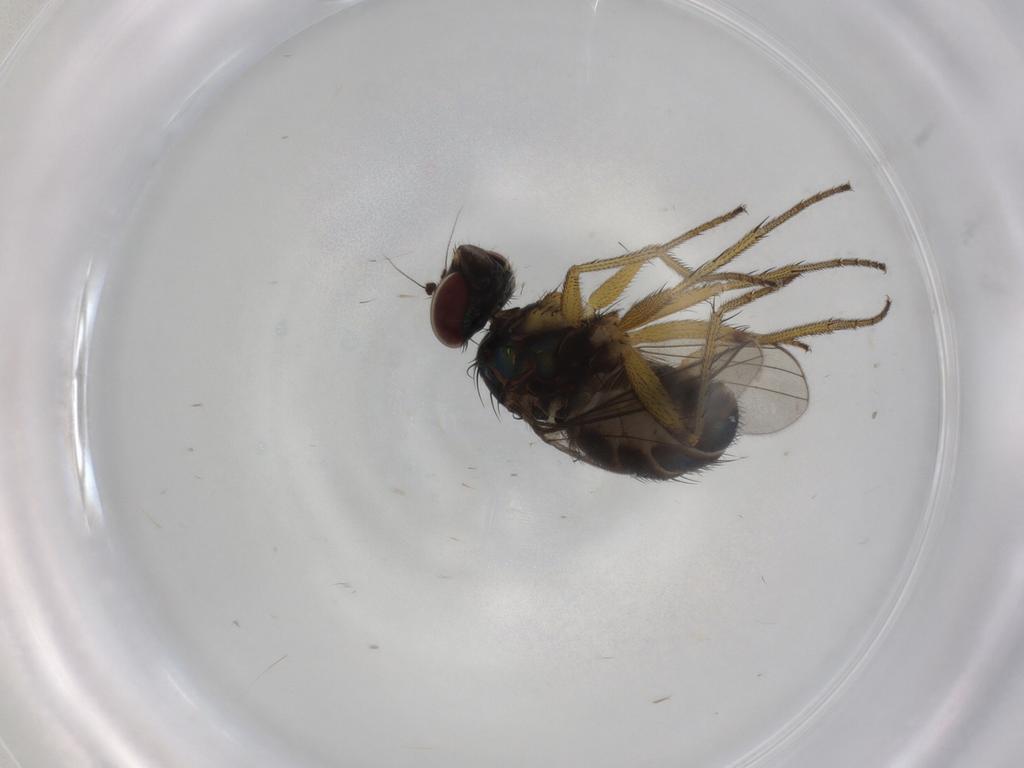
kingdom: Animalia
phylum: Arthropoda
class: Insecta
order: Diptera
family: Dolichopodidae
